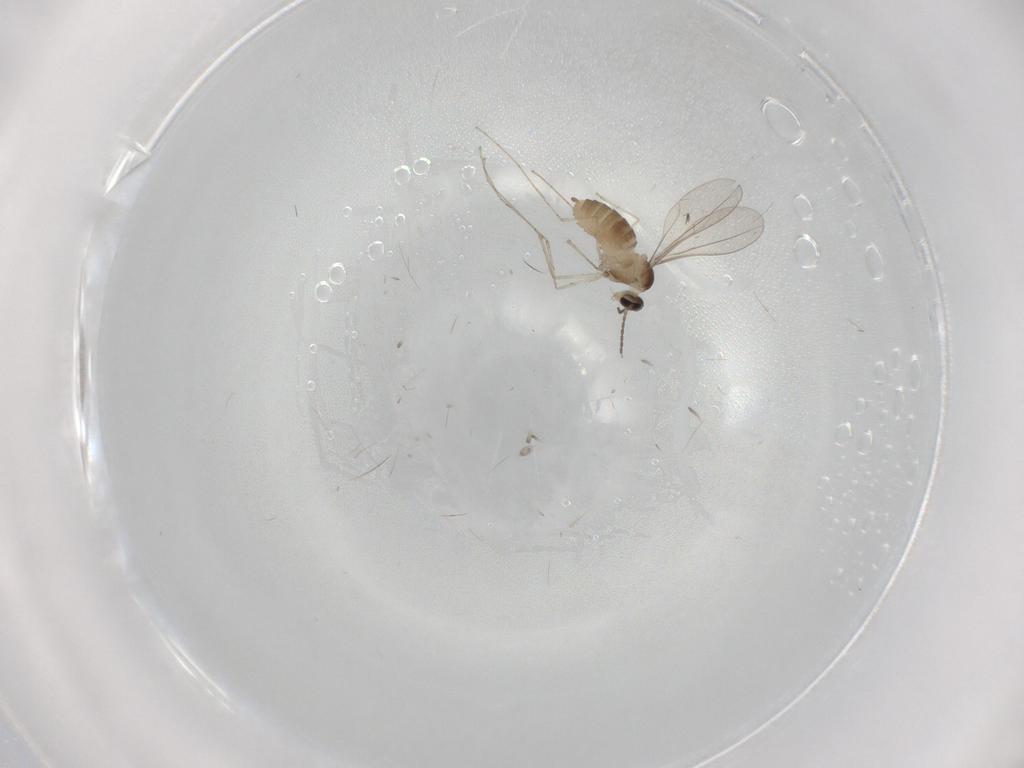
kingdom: Animalia
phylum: Arthropoda
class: Insecta
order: Diptera
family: Cecidomyiidae
